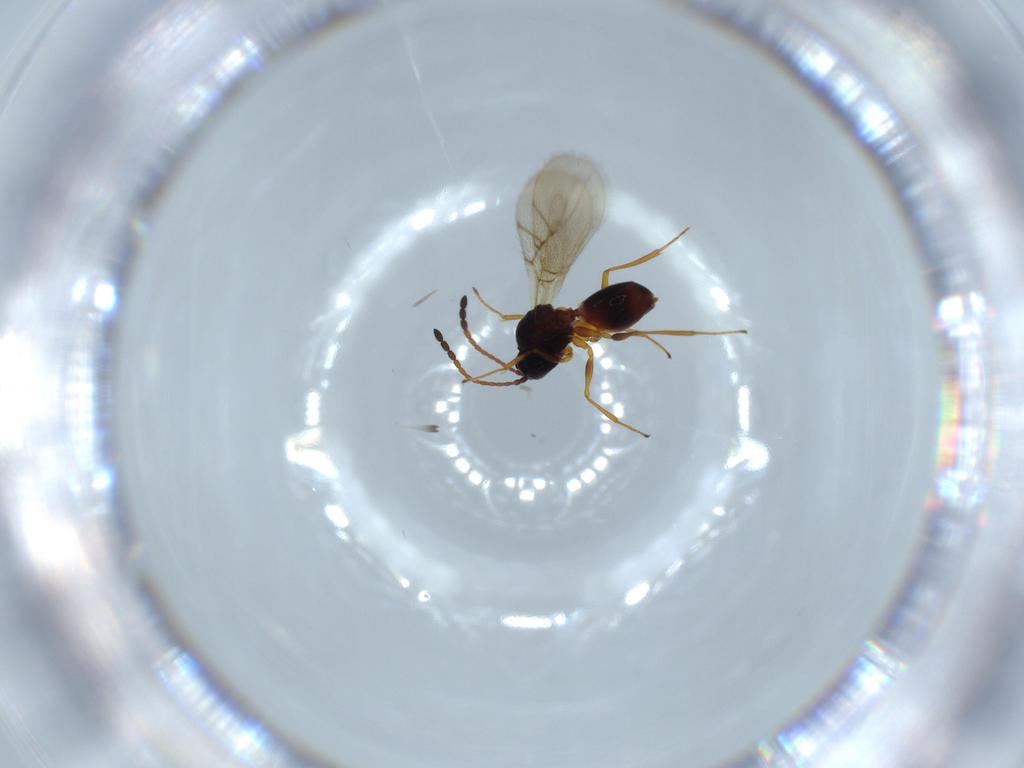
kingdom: Animalia
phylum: Arthropoda
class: Insecta
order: Hymenoptera
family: Figitidae
